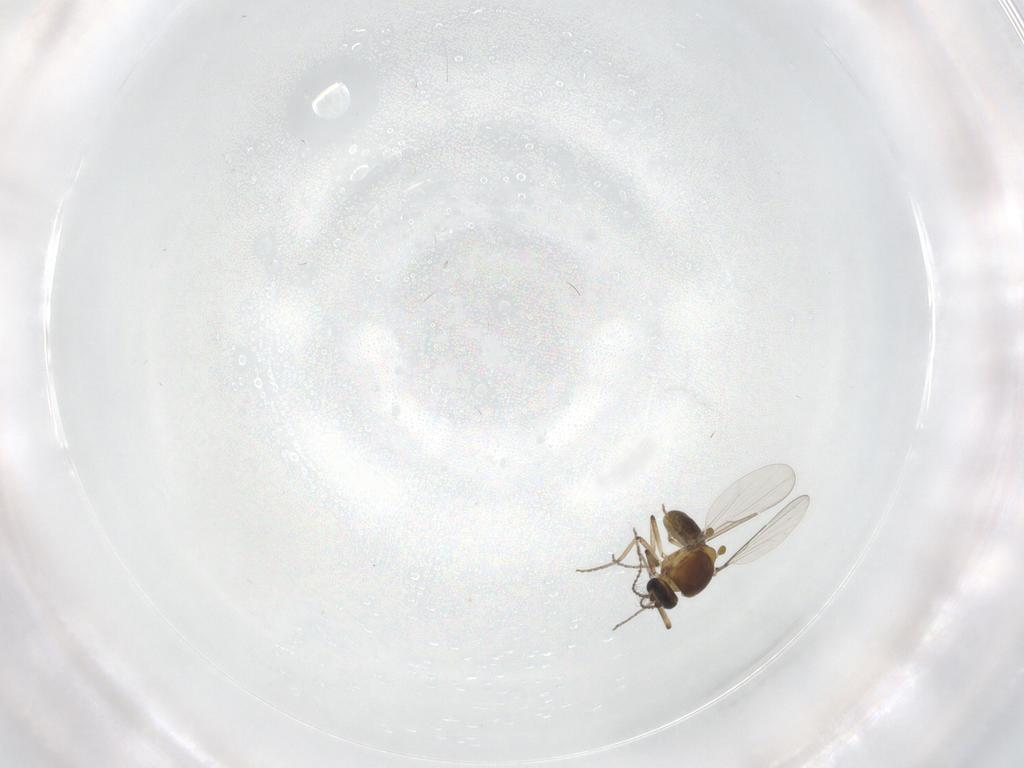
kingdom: Animalia
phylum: Arthropoda
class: Insecta
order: Diptera
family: Ceratopogonidae
